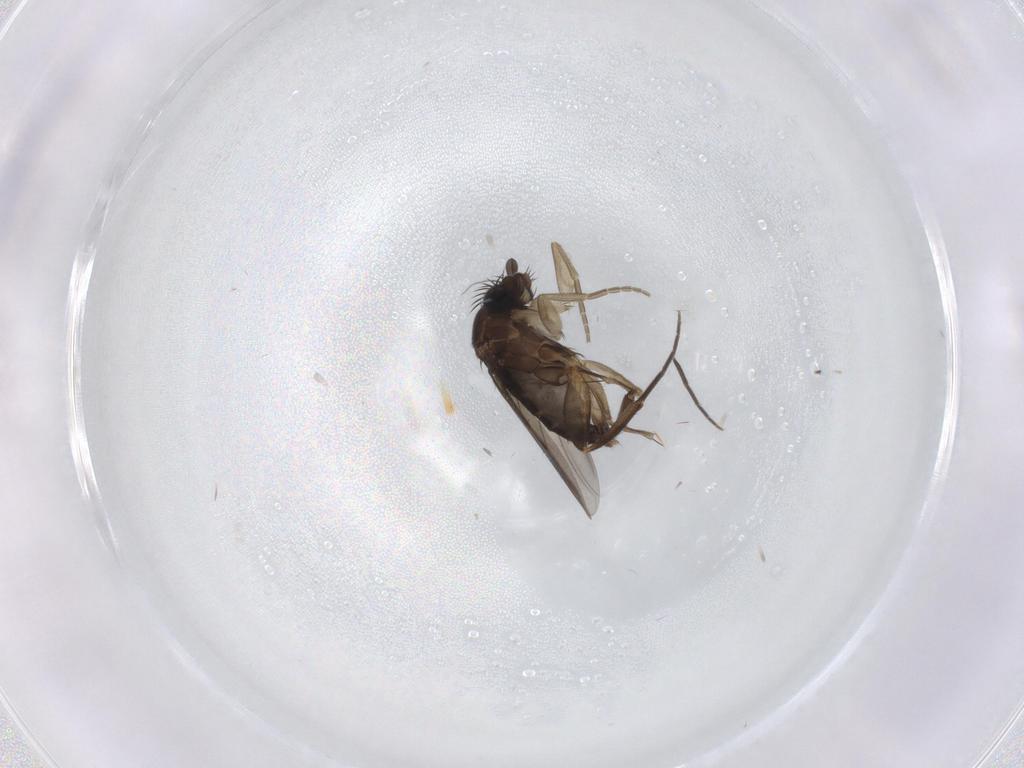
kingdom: Animalia
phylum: Arthropoda
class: Insecta
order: Diptera
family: Phoridae
